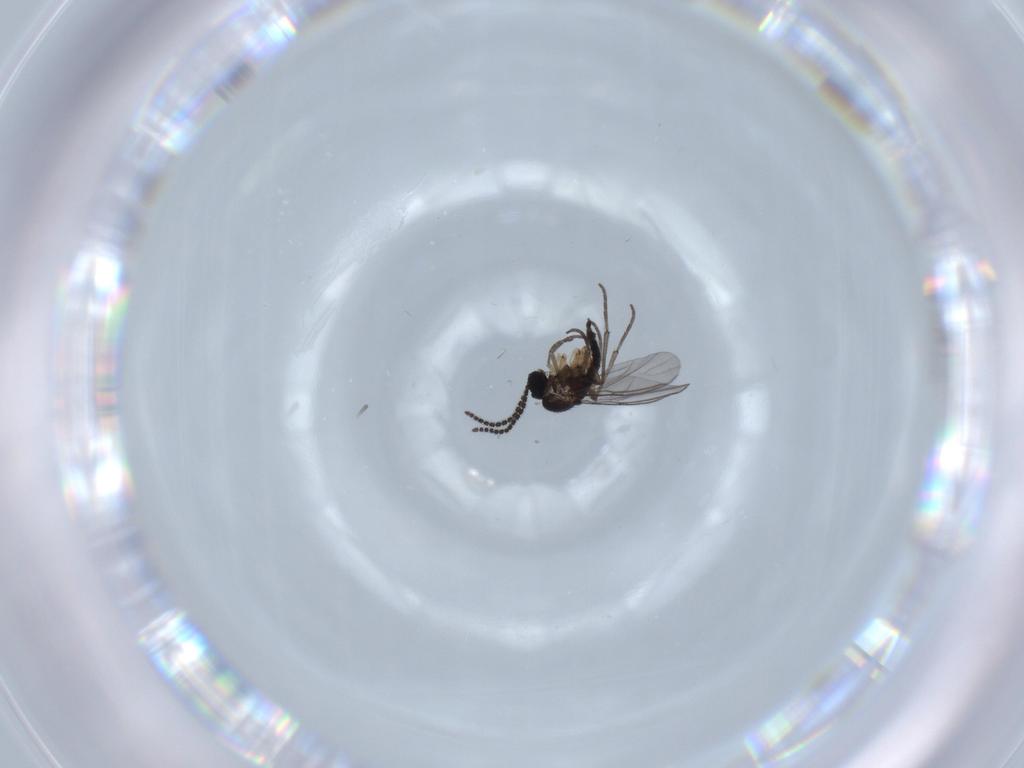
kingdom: Animalia
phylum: Arthropoda
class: Insecta
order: Diptera
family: Sciaridae
